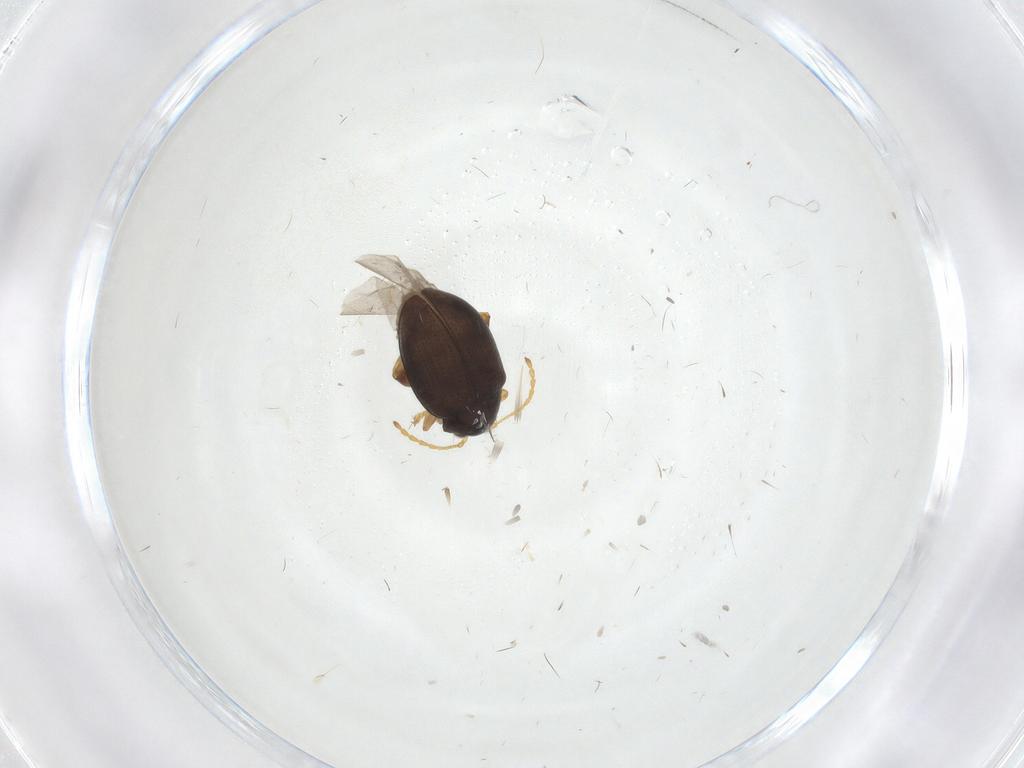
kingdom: Animalia
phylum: Arthropoda
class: Insecta
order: Coleoptera
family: Chrysomelidae
